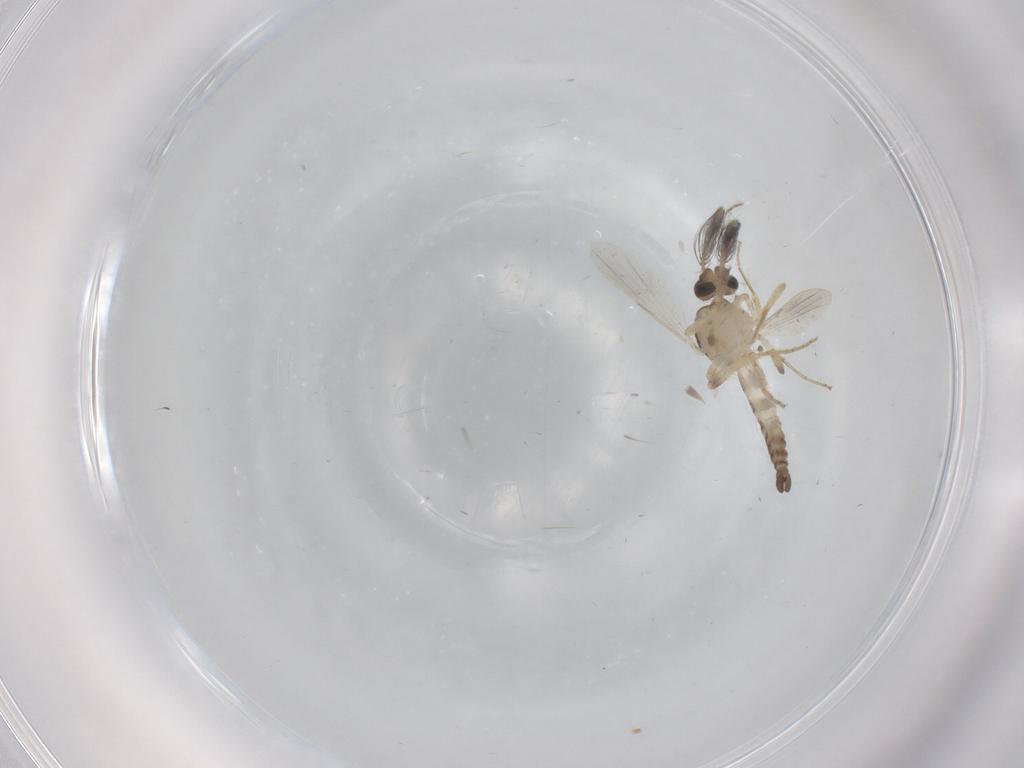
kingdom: Animalia
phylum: Arthropoda
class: Insecta
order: Diptera
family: Ceratopogonidae
